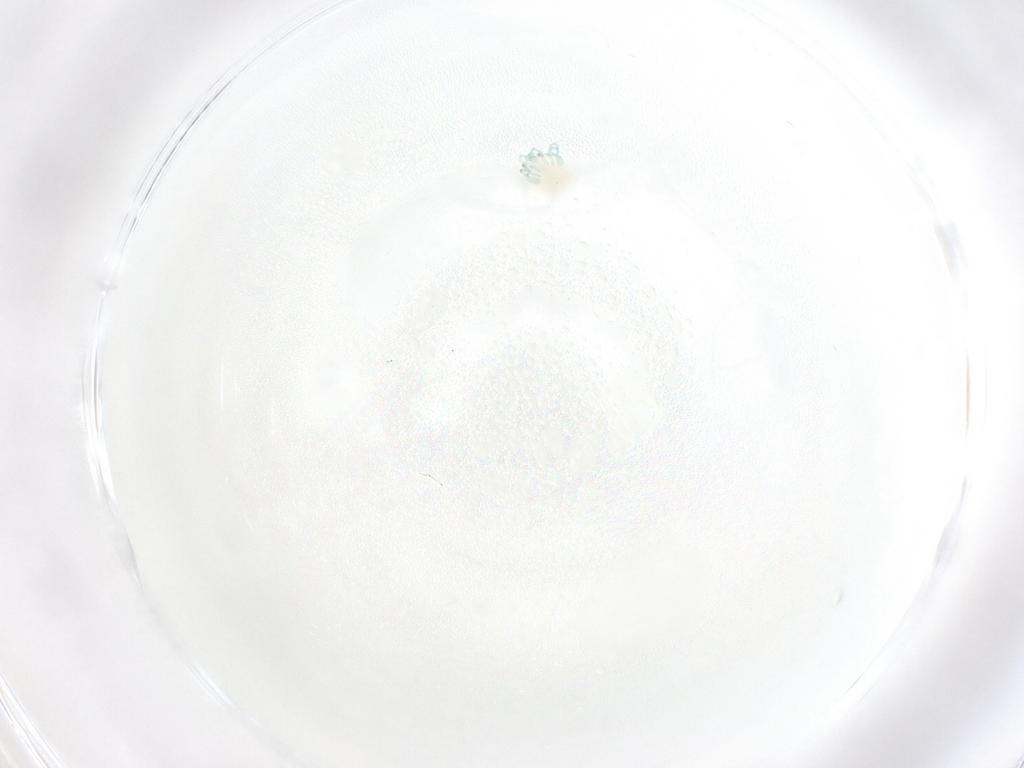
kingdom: Animalia
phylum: Arthropoda
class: Arachnida
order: Trombidiformes
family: Arrenuridae
